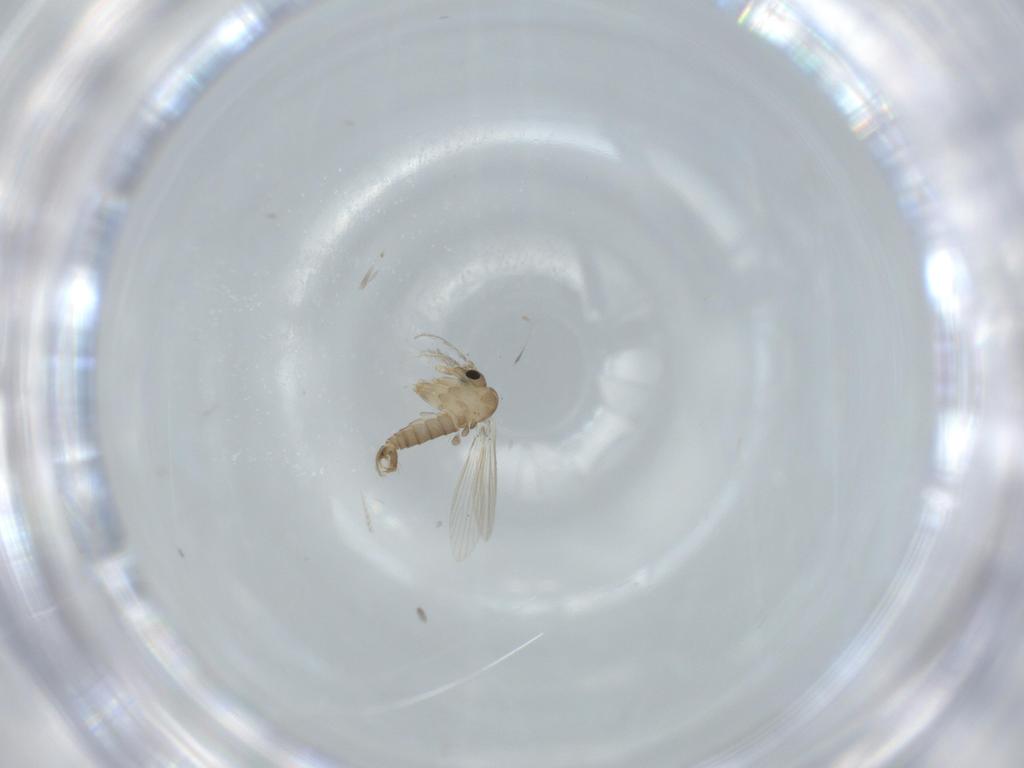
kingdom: Animalia
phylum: Arthropoda
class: Insecta
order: Diptera
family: Psychodidae
